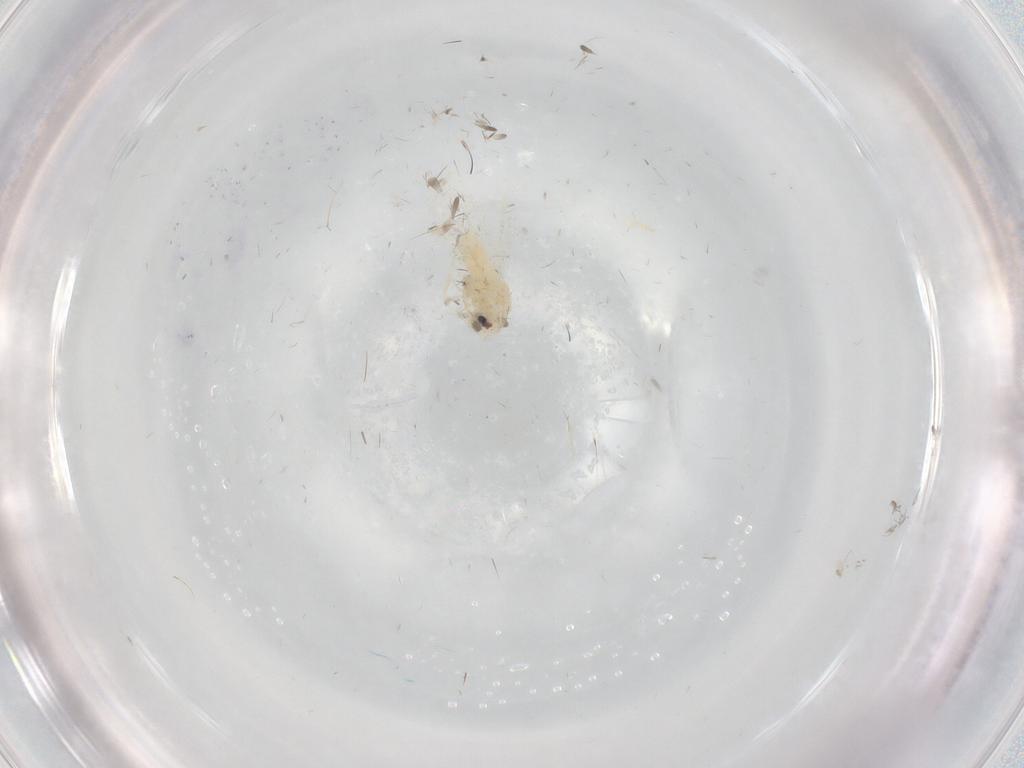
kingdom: Animalia
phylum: Arthropoda
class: Insecta
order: Hemiptera
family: Aleyrodidae
